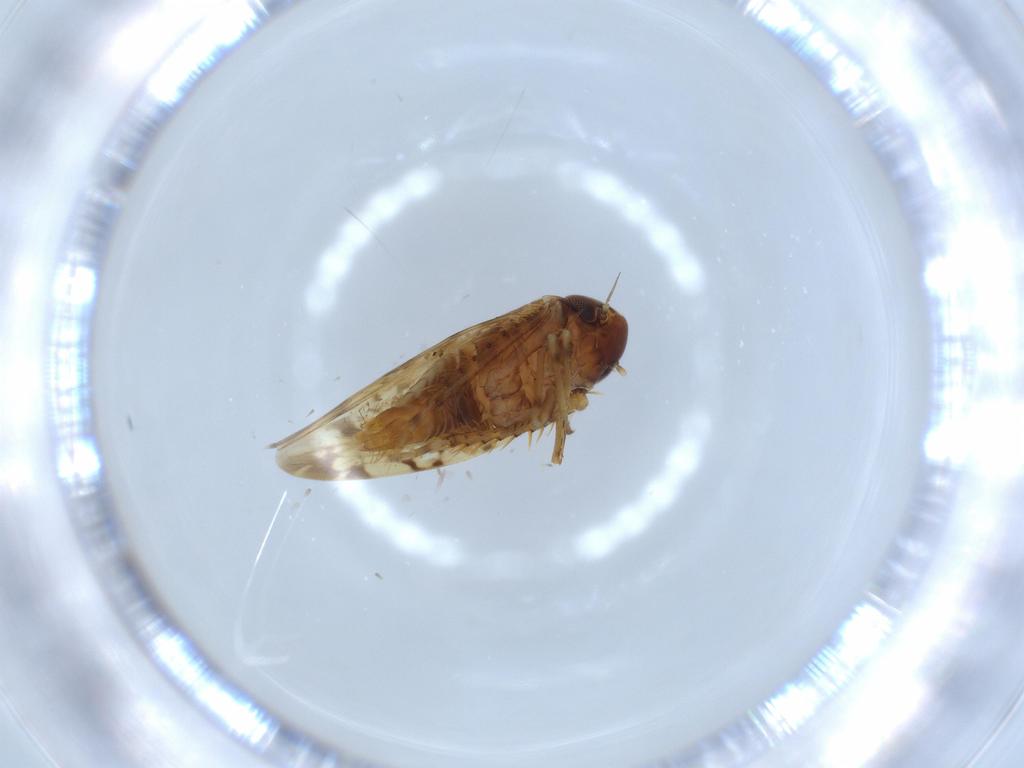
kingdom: Animalia
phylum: Arthropoda
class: Insecta
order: Hemiptera
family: Cicadellidae
